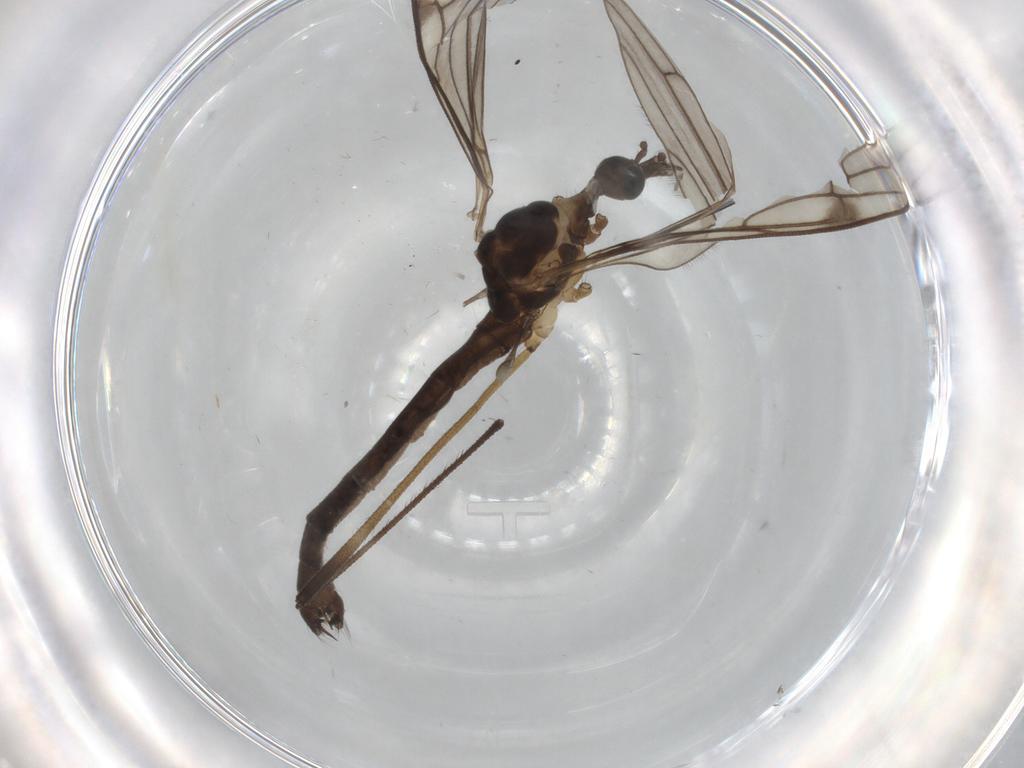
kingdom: Animalia
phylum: Arthropoda
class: Insecta
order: Diptera
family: Limoniidae
